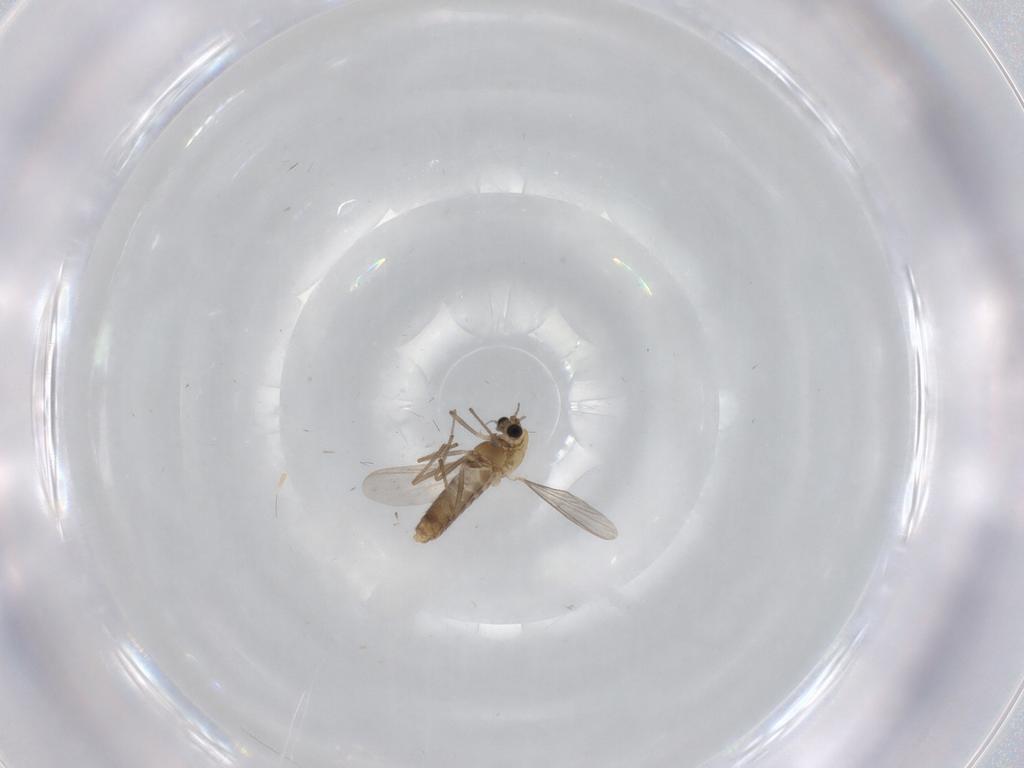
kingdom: Animalia
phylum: Arthropoda
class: Insecta
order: Diptera
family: Chironomidae
